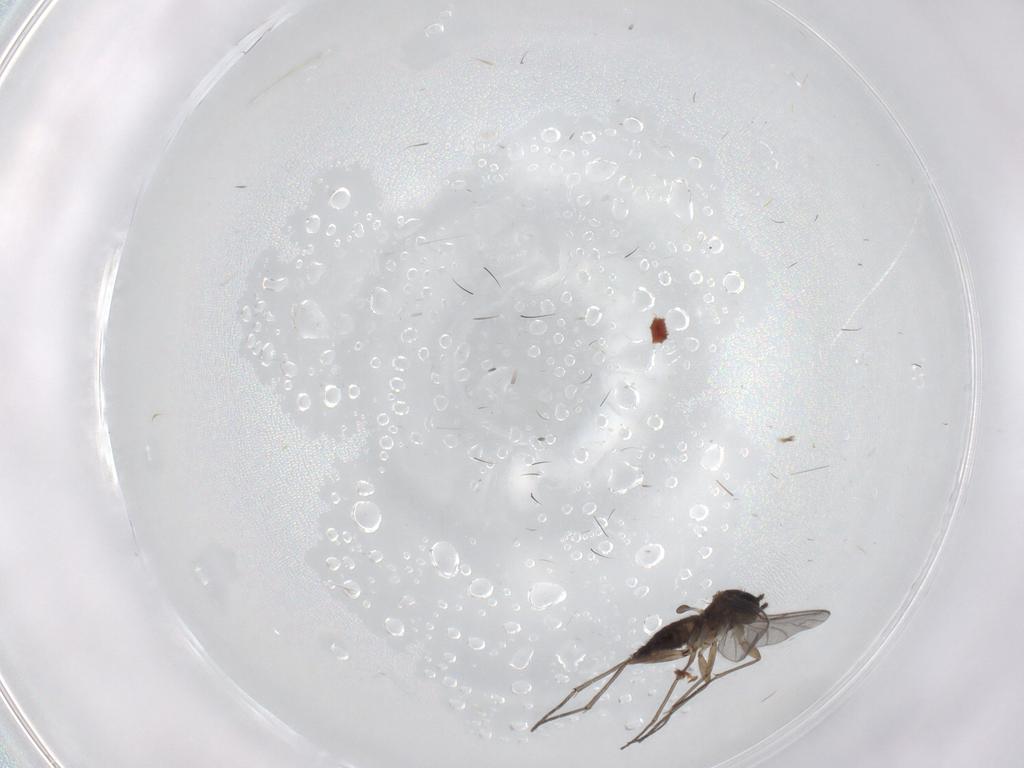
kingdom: Animalia
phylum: Arthropoda
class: Insecta
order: Diptera
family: Sciaridae
